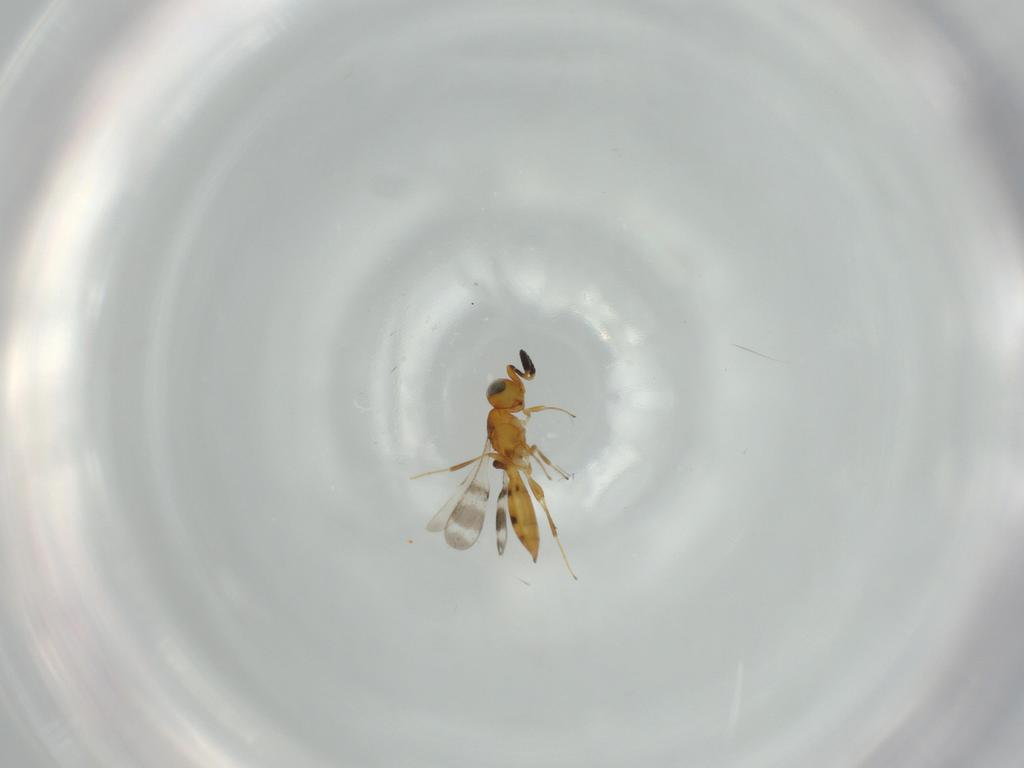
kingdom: Animalia
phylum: Arthropoda
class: Insecta
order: Hymenoptera
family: Scelionidae
